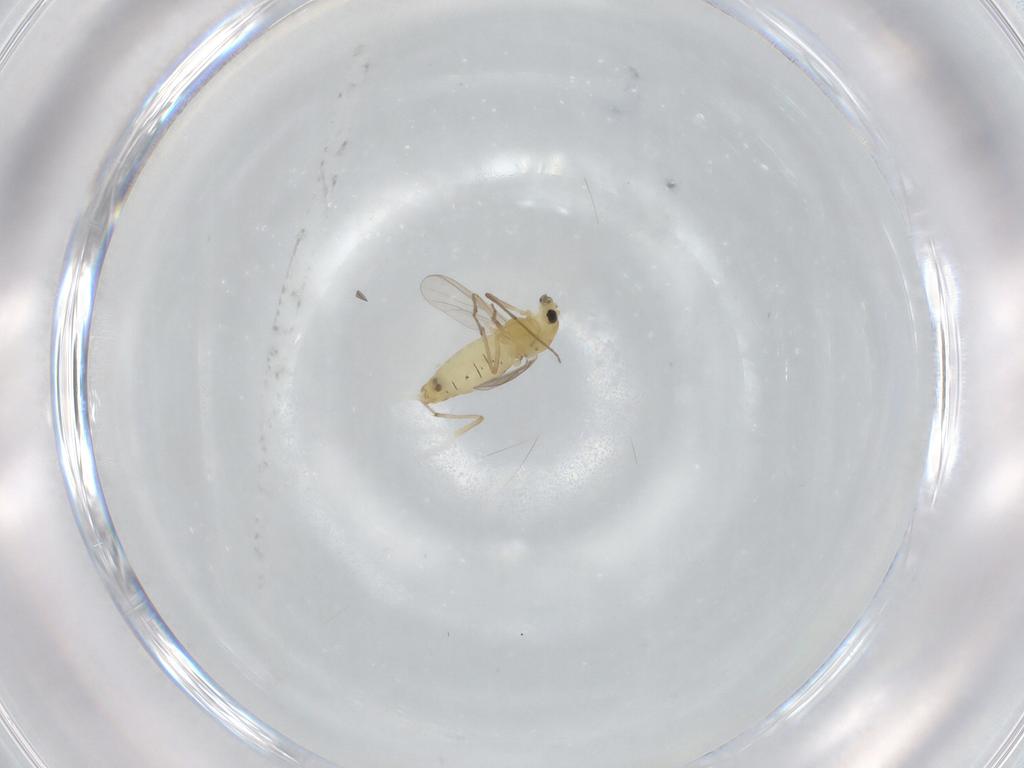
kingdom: Animalia
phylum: Arthropoda
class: Insecta
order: Diptera
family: Chironomidae
